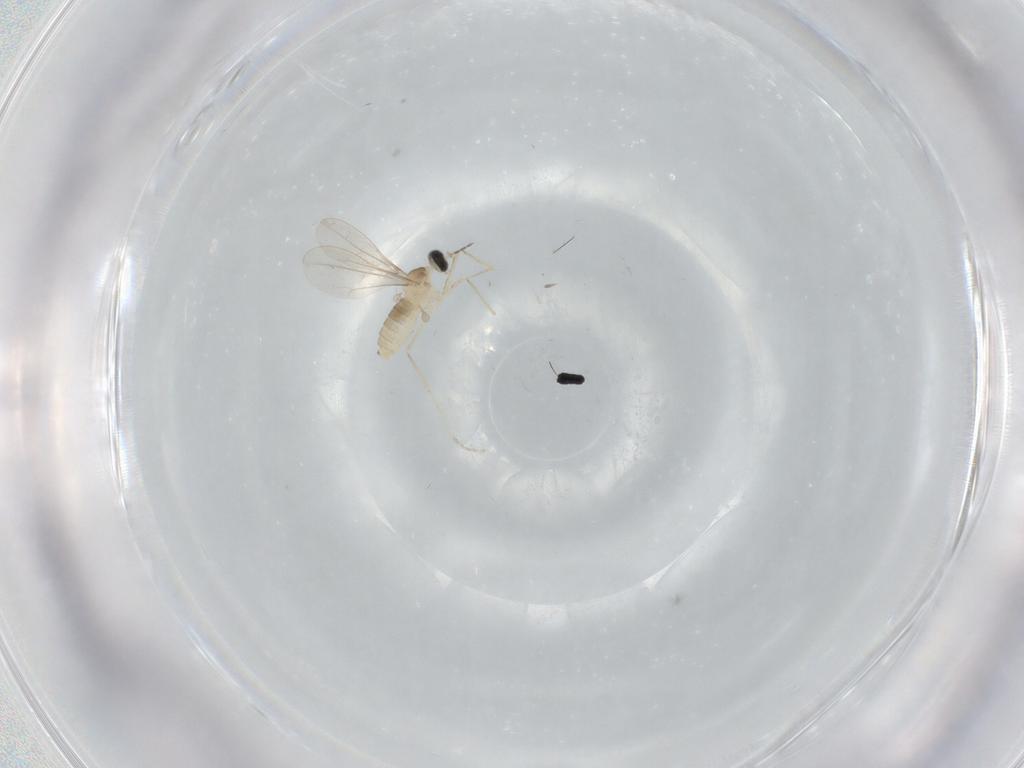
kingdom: Animalia
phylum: Arthropoda
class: Insecta
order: Diptera
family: Cecidomyiidae
